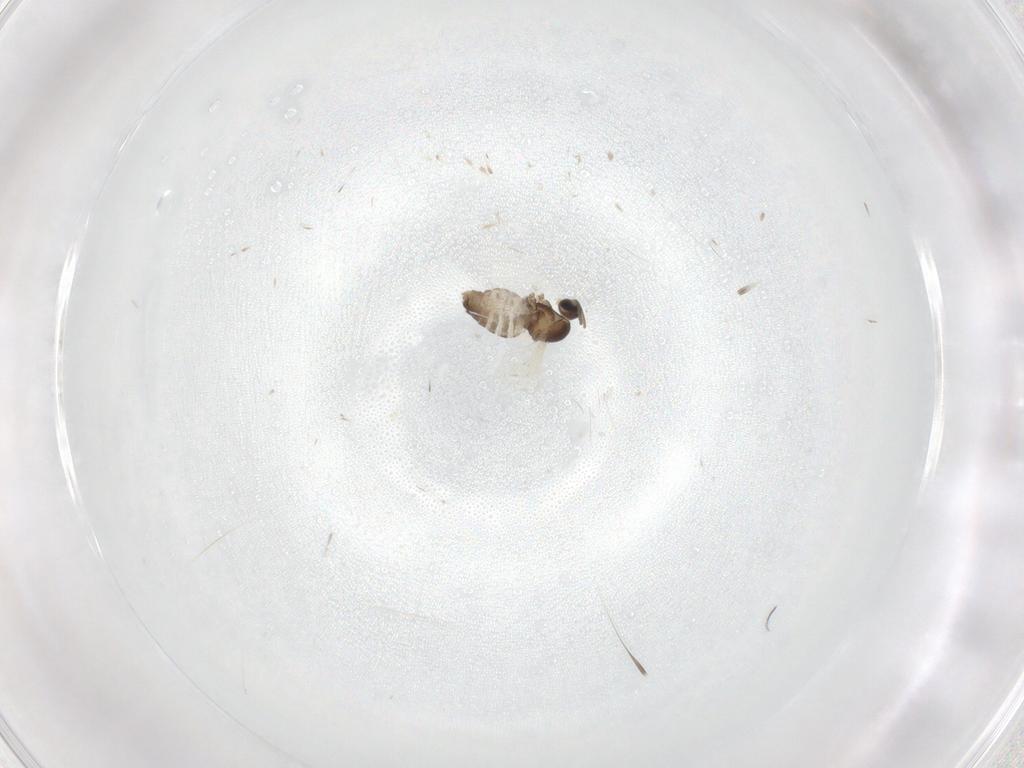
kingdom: Animalia
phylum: Arthropoda
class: Insecta
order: Diptera
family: Cecidomyiidae
